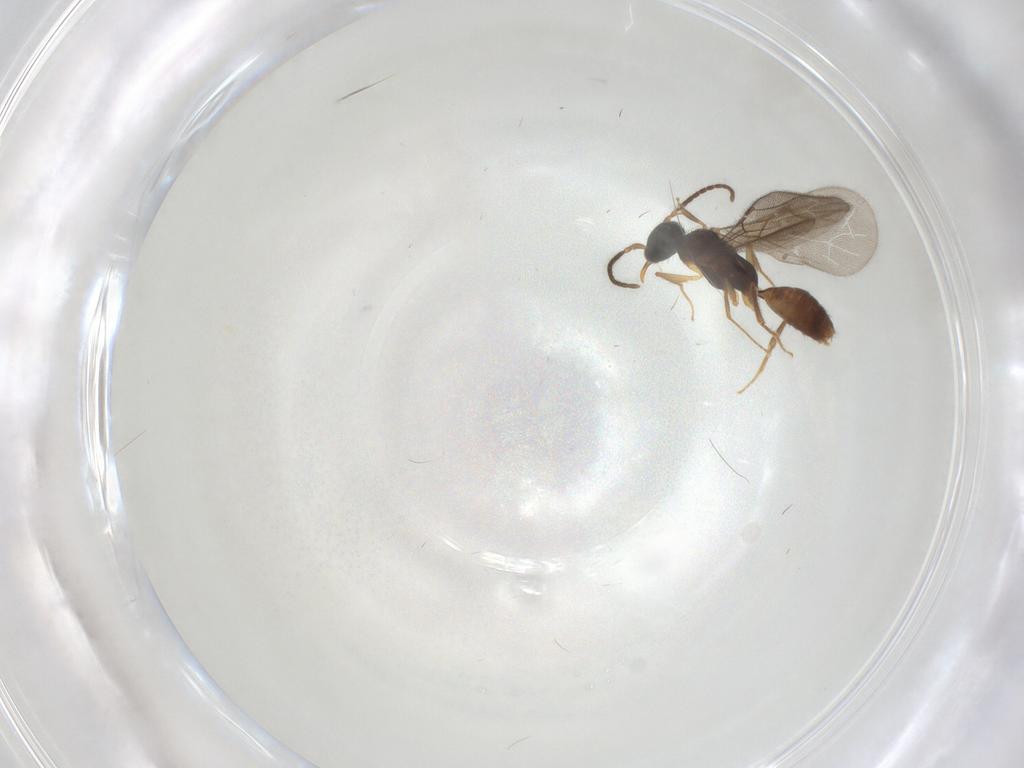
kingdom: Animalia
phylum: Arthropoda
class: Insecta
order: Hymenoptera
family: Bethylidae
